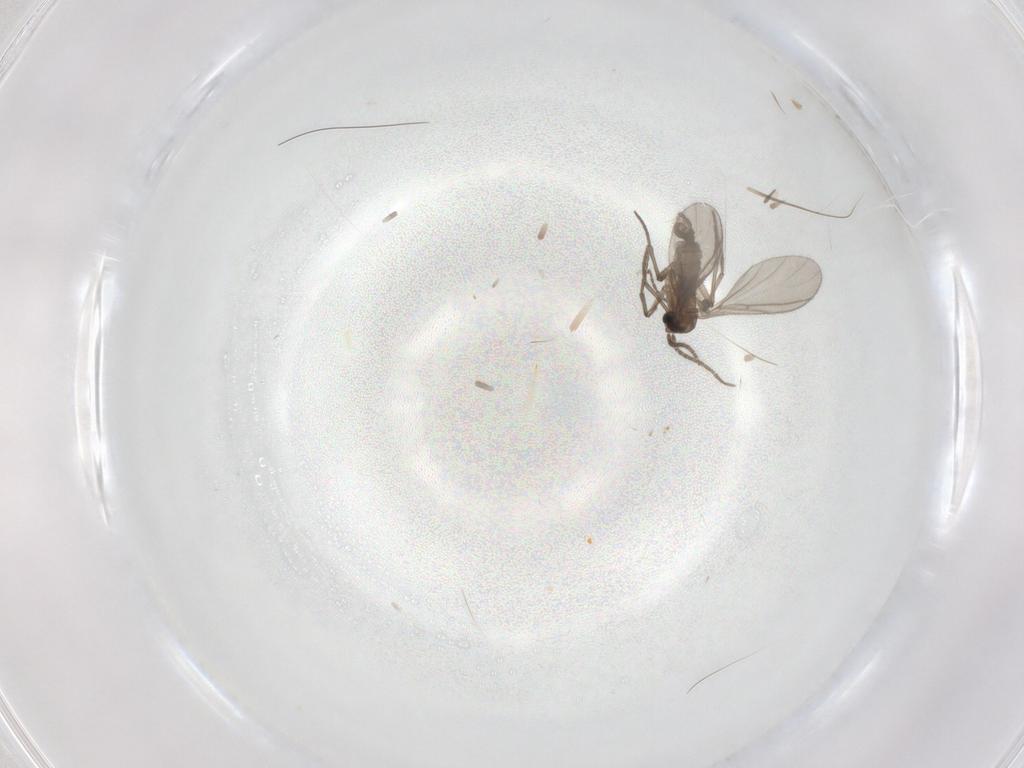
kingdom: Animalia
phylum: Arthropoda
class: Insecta
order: Diptera
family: Sciaridae
